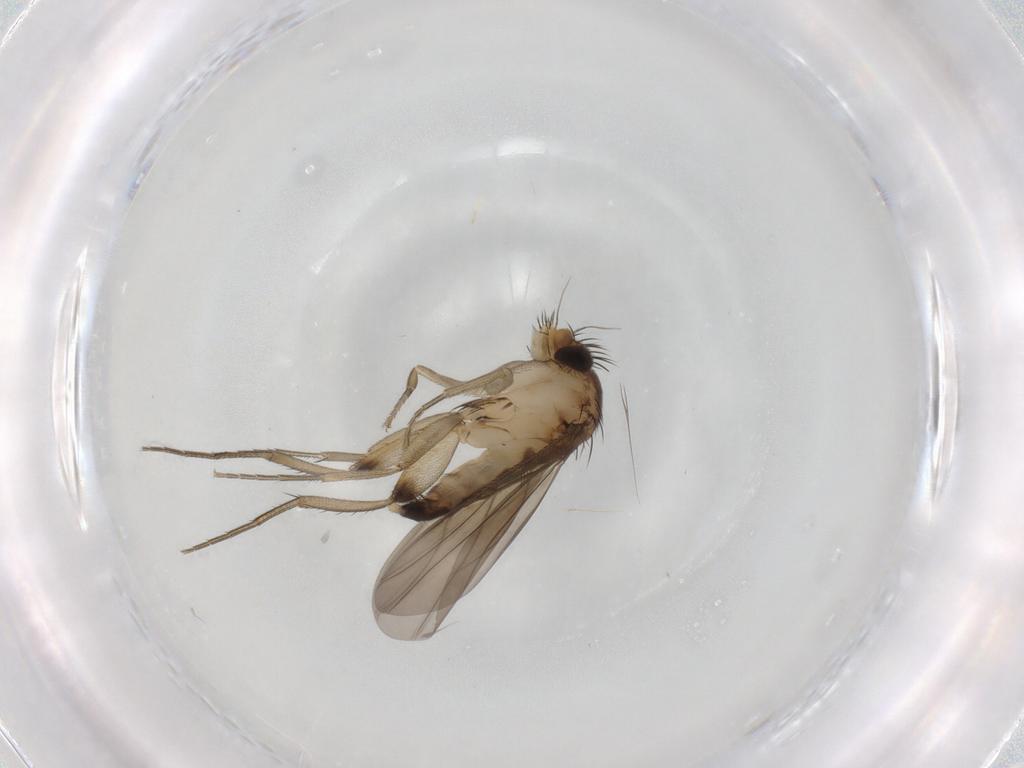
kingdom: Animalia
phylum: Arthropoda
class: Insecta
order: Diptera
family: Phoridae
